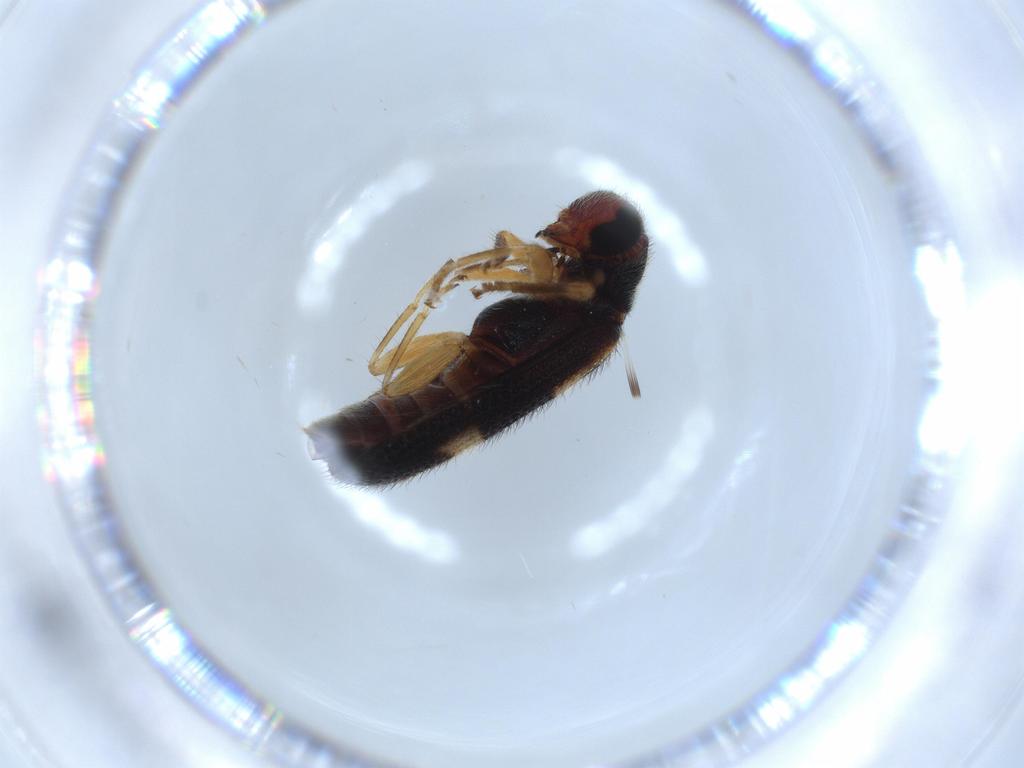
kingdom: Animalia
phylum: Arthropoda
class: Insecta
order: Coleoptera
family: Cleridae
